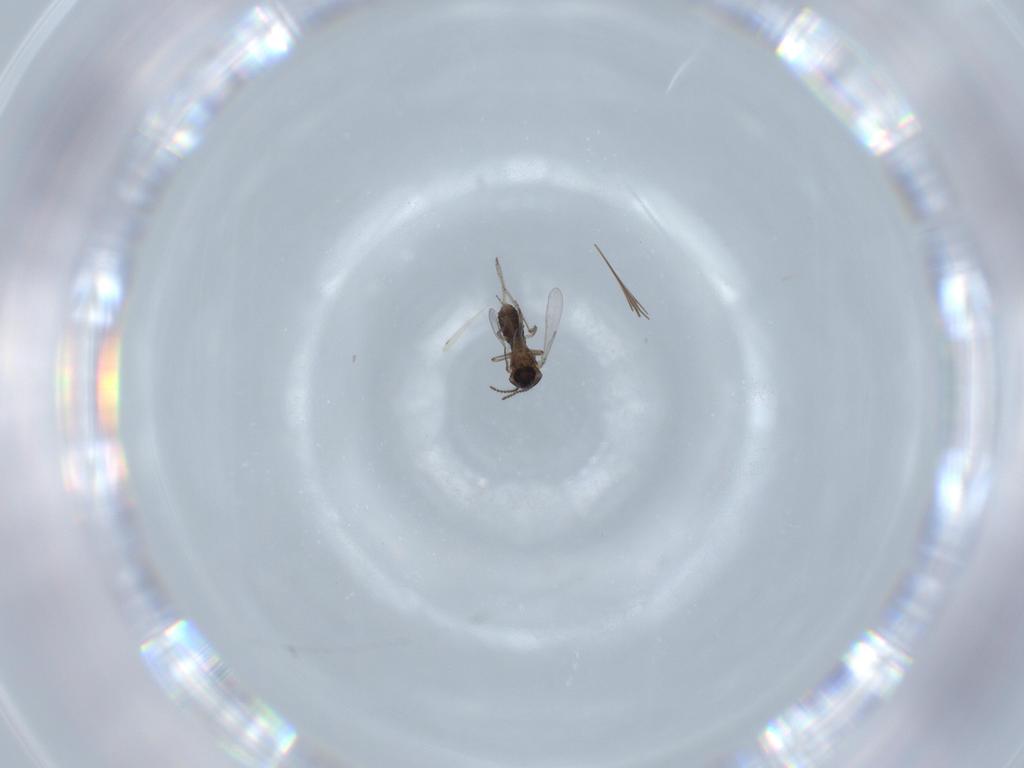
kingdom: Animalia
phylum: Arthropoda
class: Insecta
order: Diptera
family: Ceratopogonidae
